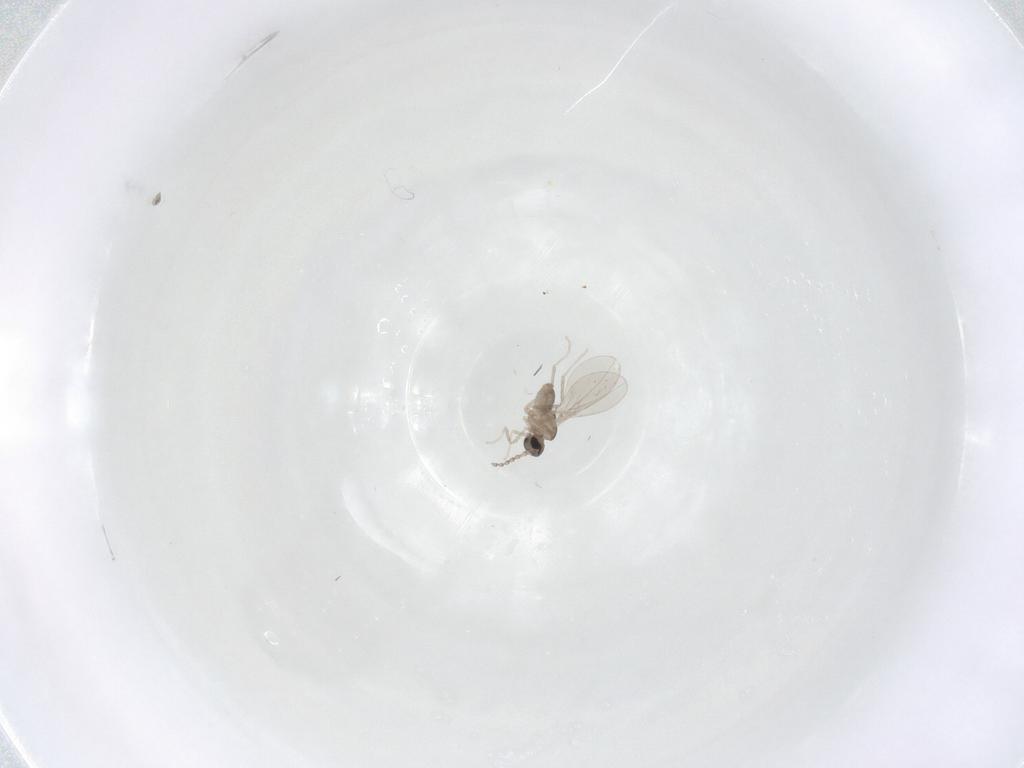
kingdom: Animalia
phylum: Arthropoda
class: Insecta
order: Diptera
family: Cecidomyiidae
